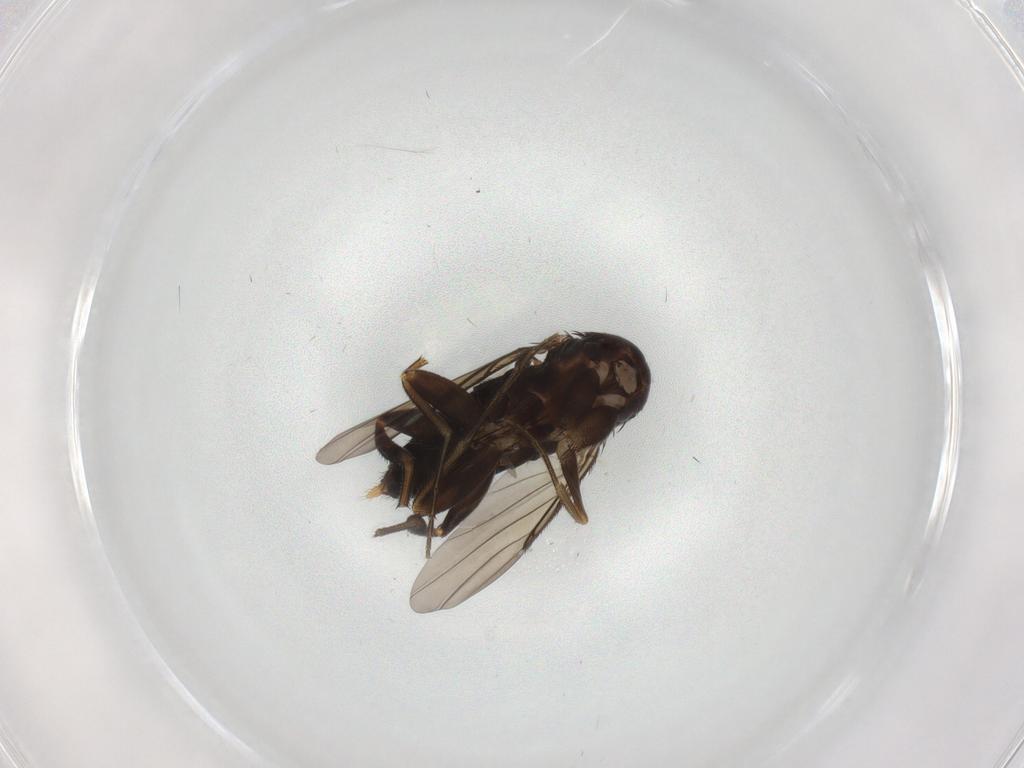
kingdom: Animalia
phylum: Arthropoda
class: Insecta
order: Diptera
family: Phoridae
